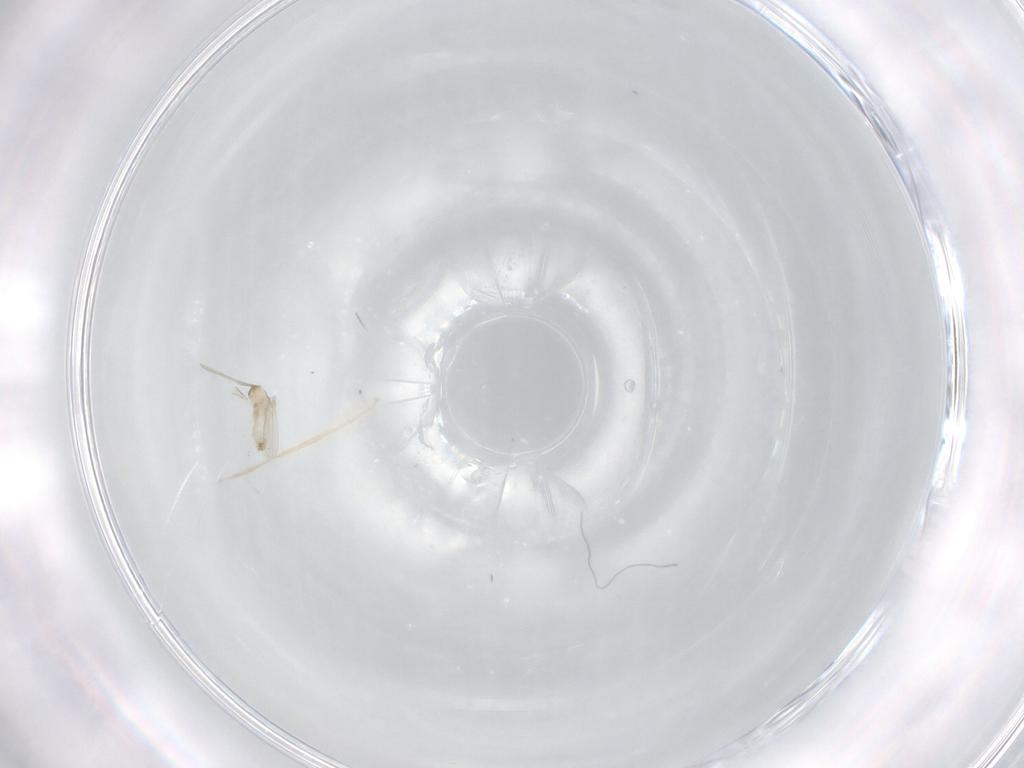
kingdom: Animalia
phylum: Arthropoda
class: Insecta
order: Diptera
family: Cecidomyiidae
